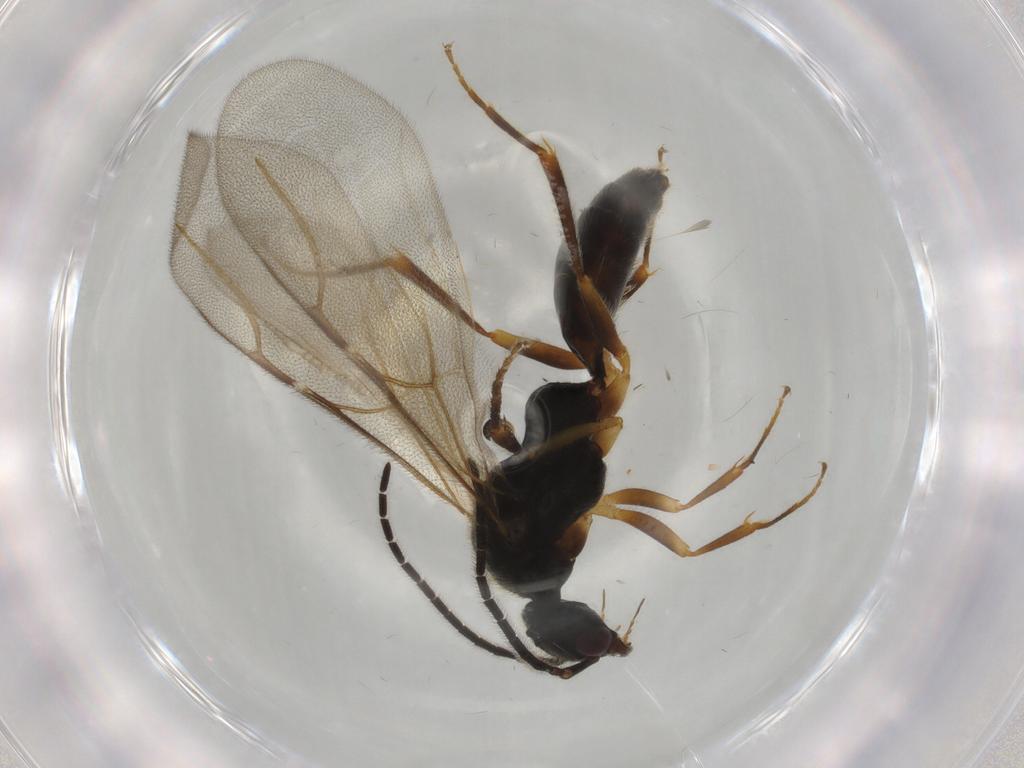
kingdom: Animalia
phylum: Arthropoda
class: Insecta
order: Hymenoptera
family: Bethylidae
